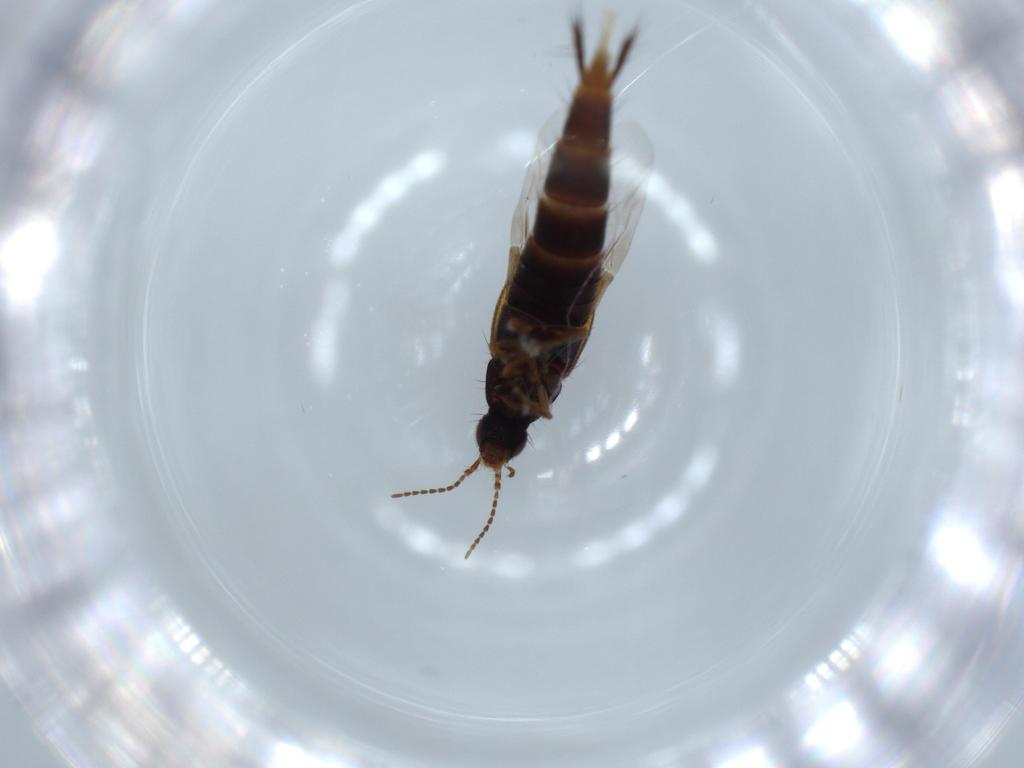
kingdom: Animalia
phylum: Arthropoda
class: Insecta
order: Coleoptera
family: Staphylinidae
